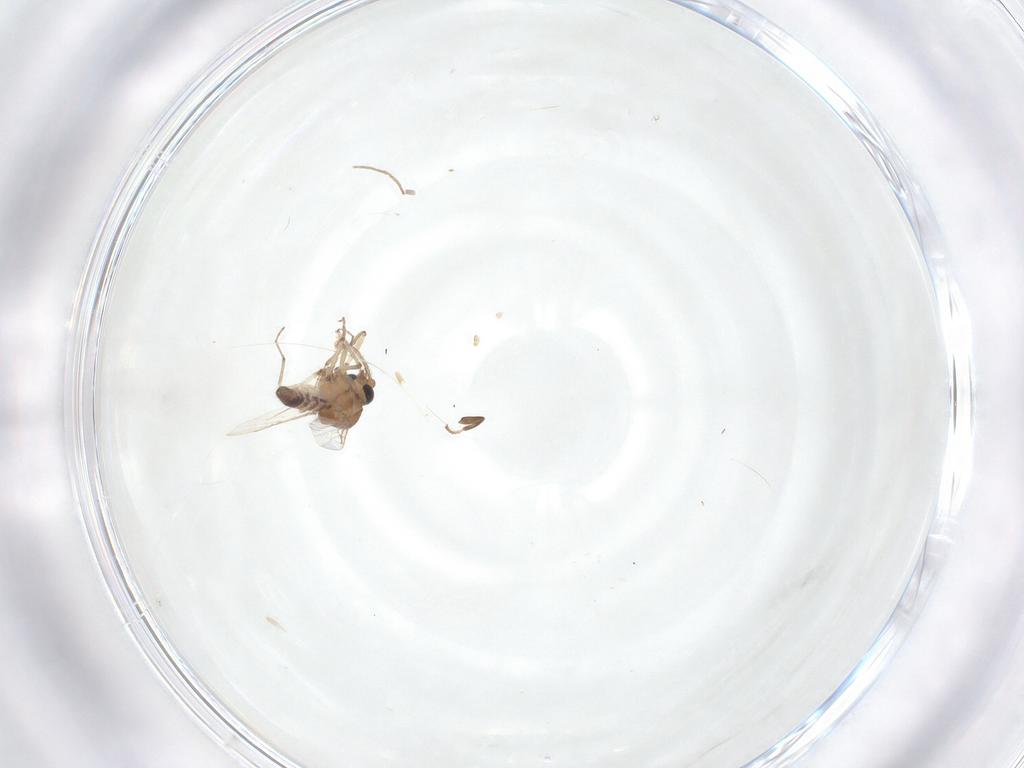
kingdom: Animalia
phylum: Arthropoda
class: Insecta
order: Diptera
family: Ceratopogonidae
